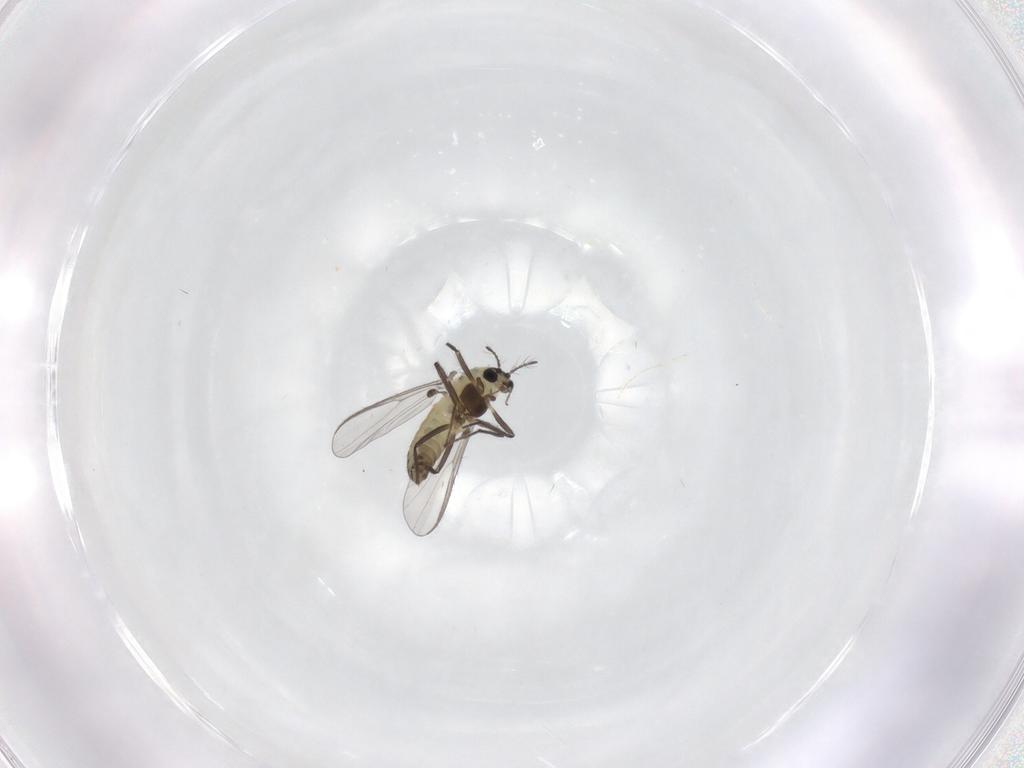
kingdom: Animalia
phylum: Arthropoda
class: Insecta
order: Diptera
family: Chironomidae
